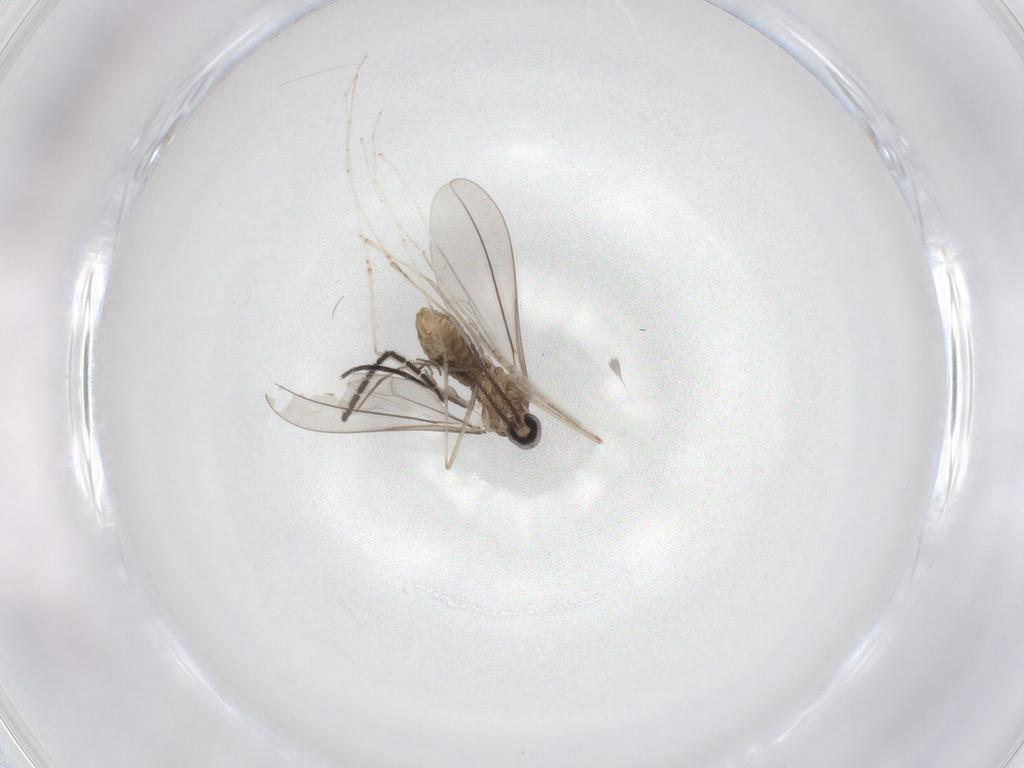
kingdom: Animalia
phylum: Arthropoda
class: Insecta
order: Diptera
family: Cecidomyiidae
